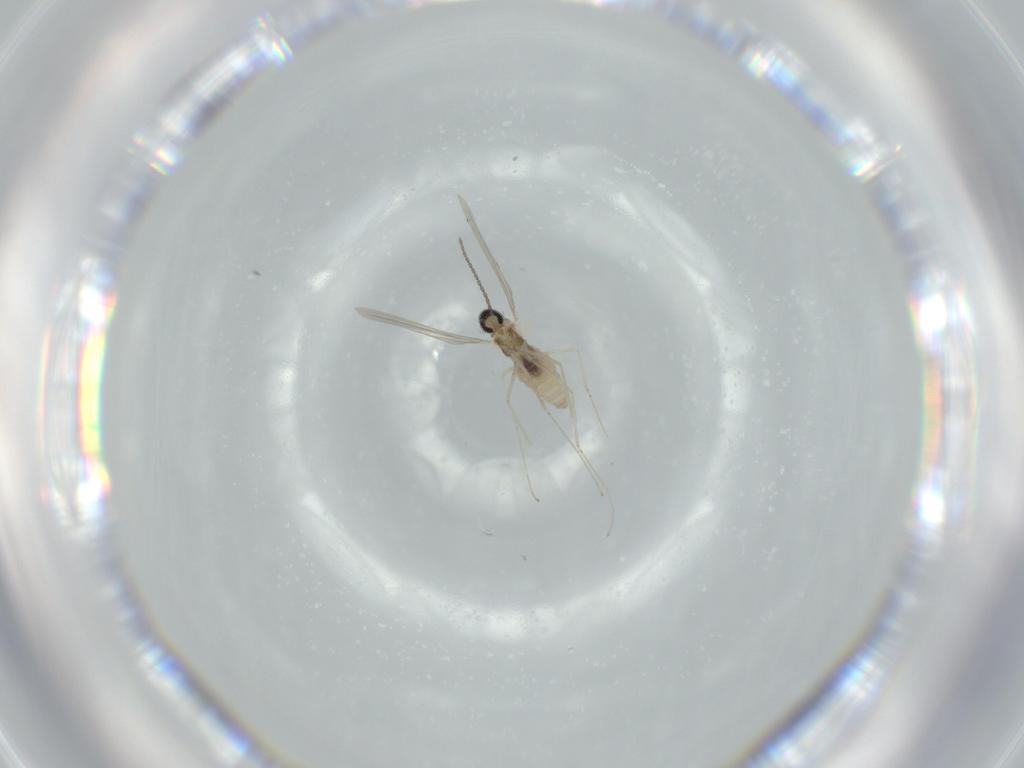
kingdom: Animalia
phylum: Arthropoda
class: Insecta
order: Diptera
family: Cecidomyiidae
